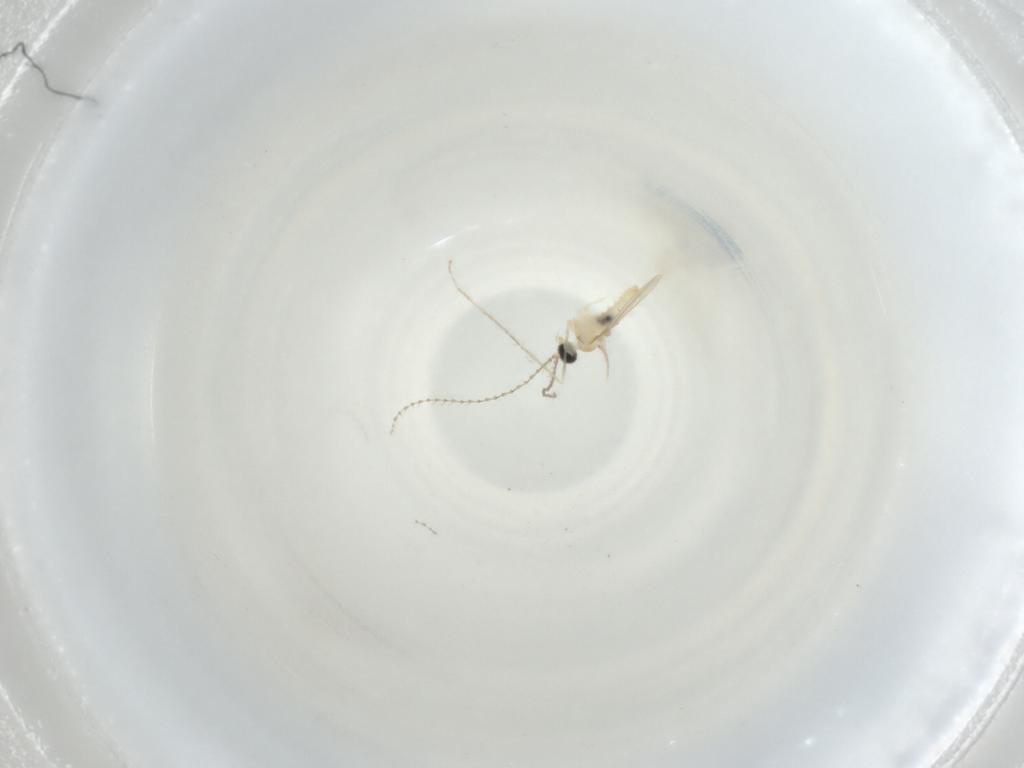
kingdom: Animalia
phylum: Arthropoda
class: Insecta
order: Diptera
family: Cecidomyiidae
